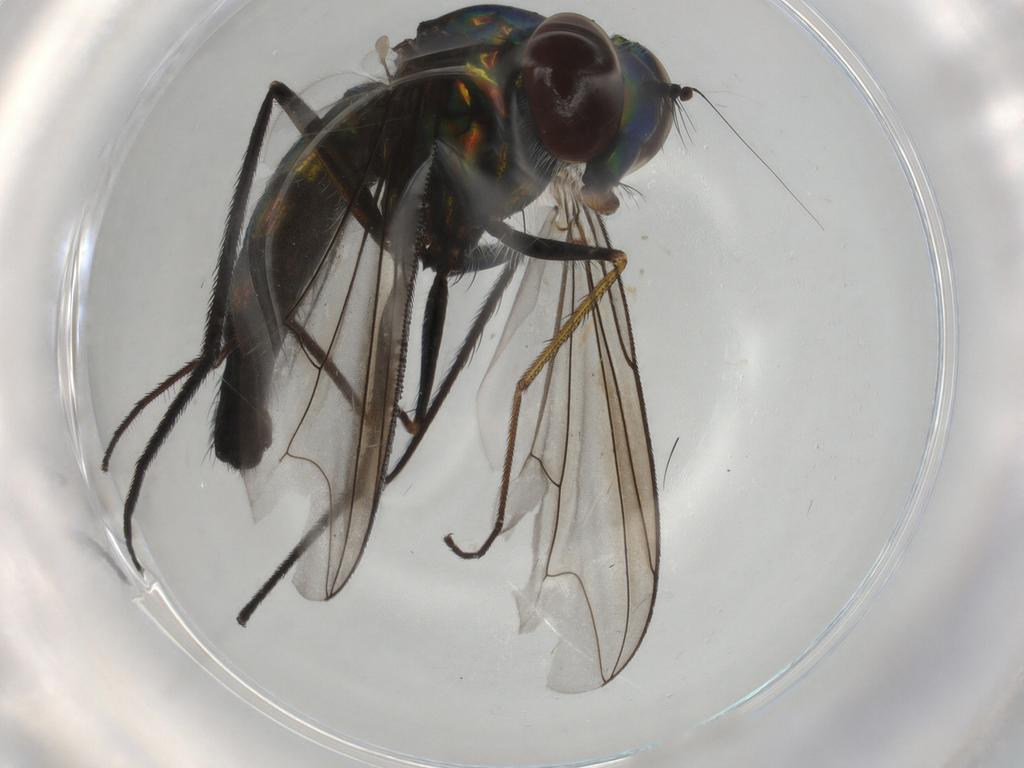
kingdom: Animalia
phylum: Arthropoda
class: Insecta
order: Diptera
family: Dolichopodidae
